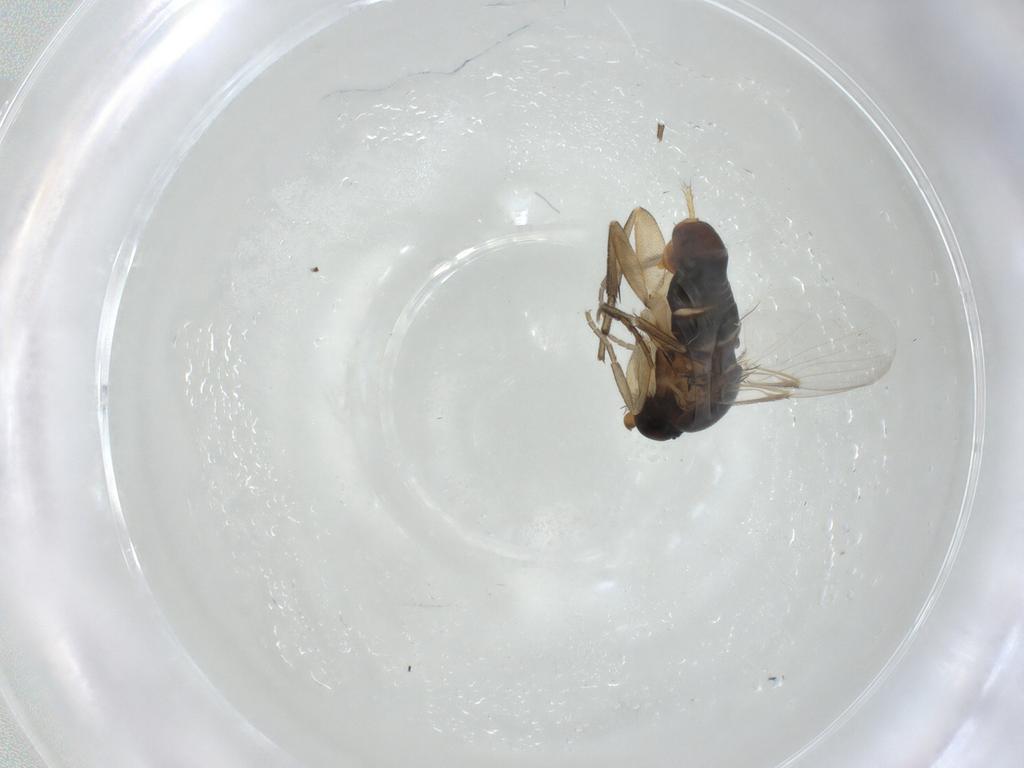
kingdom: Animalia
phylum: Arthropoda
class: Insecta
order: Diptera
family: Phoridae
